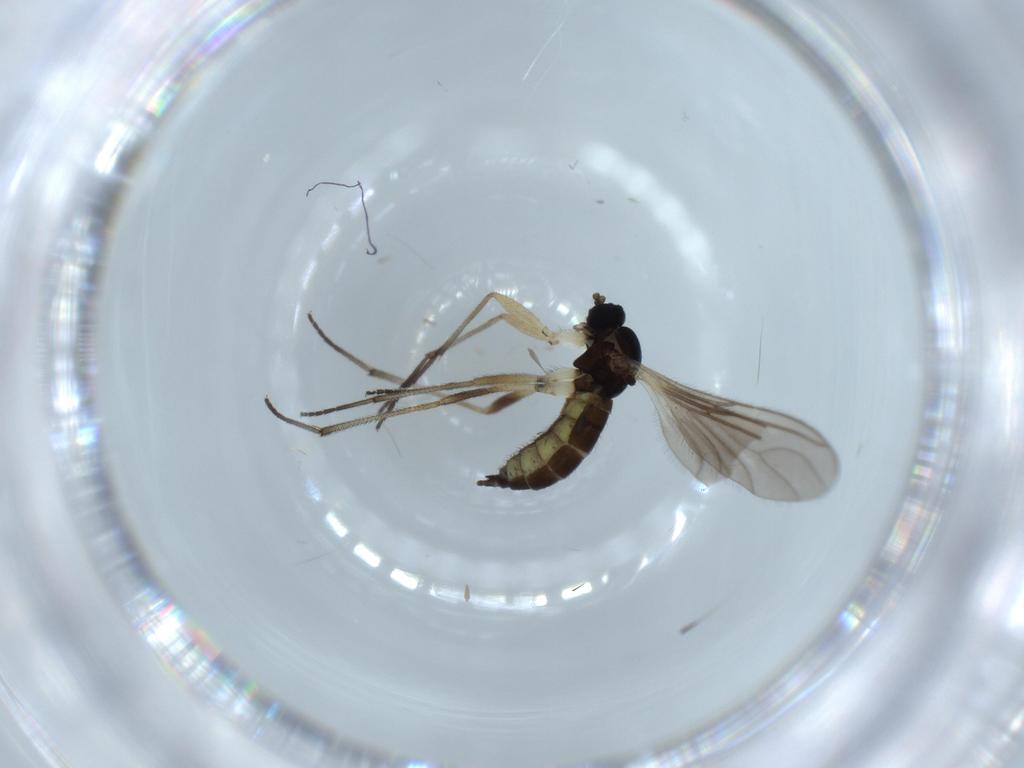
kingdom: Animalia
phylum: Arthropoda
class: Insecta
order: Diptera
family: Sciaridae
